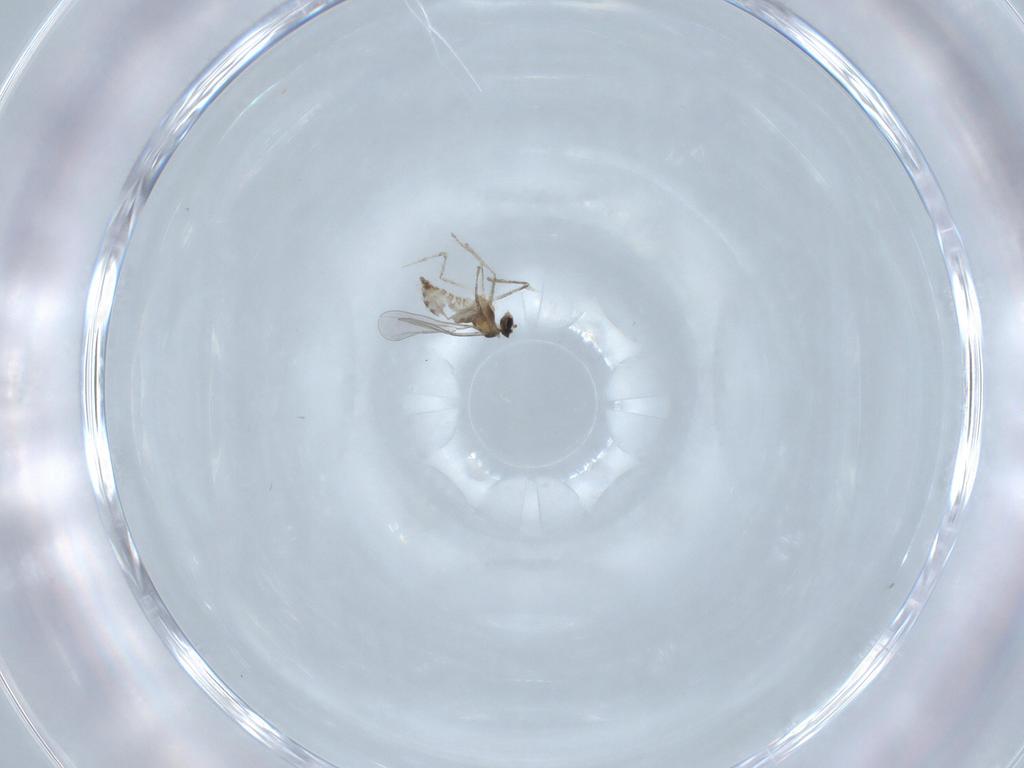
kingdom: Animalia
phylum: Arthropoda
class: Insecta
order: Diptera
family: Cecidomyiidae
